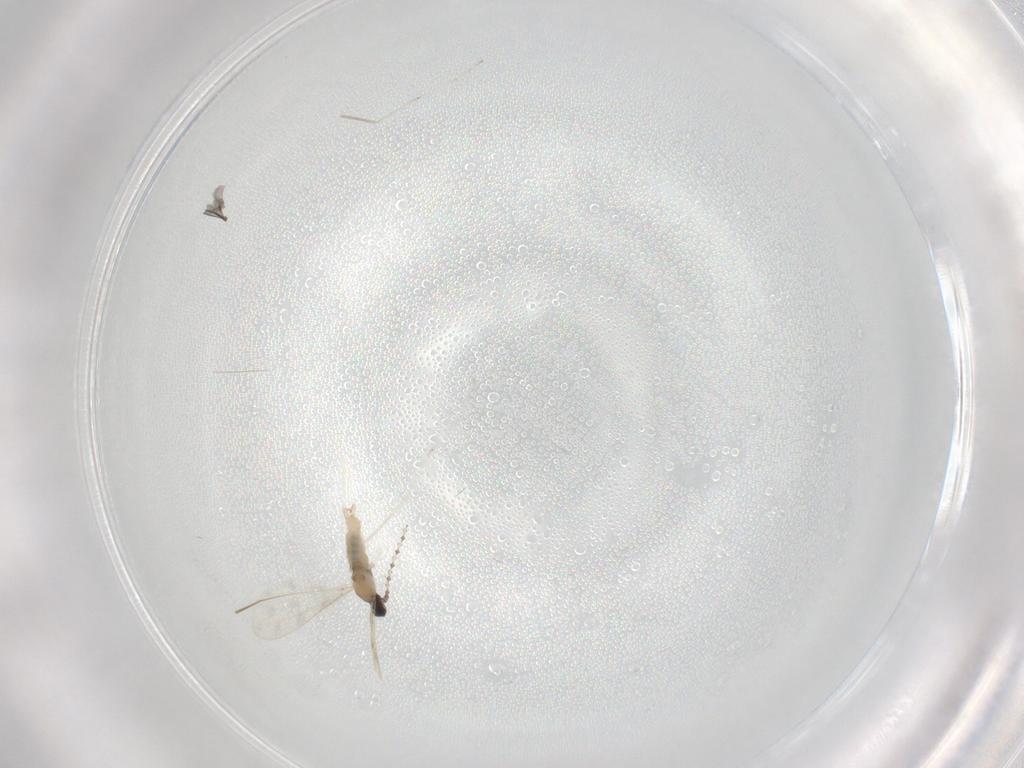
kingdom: Animalia
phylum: Arthropoda
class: Insecta
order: Diptera
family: Cecidomyiidae
